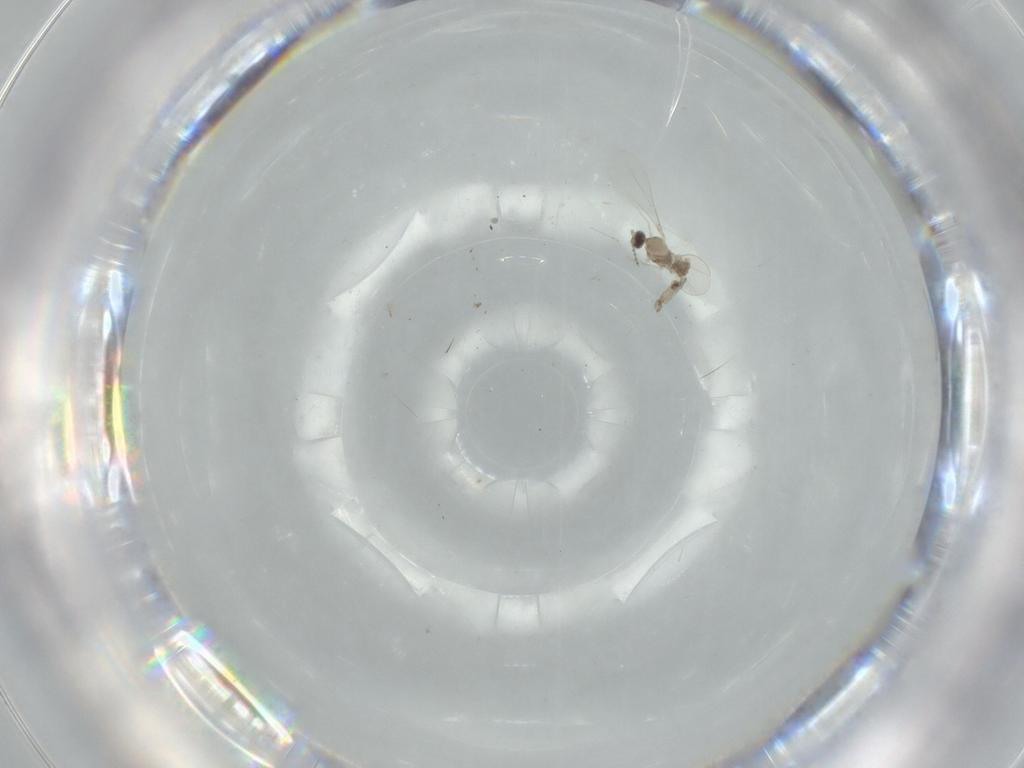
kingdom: Animalia
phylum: Arthropoda
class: Insecta
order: Diptera
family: Cecidomyiidae
